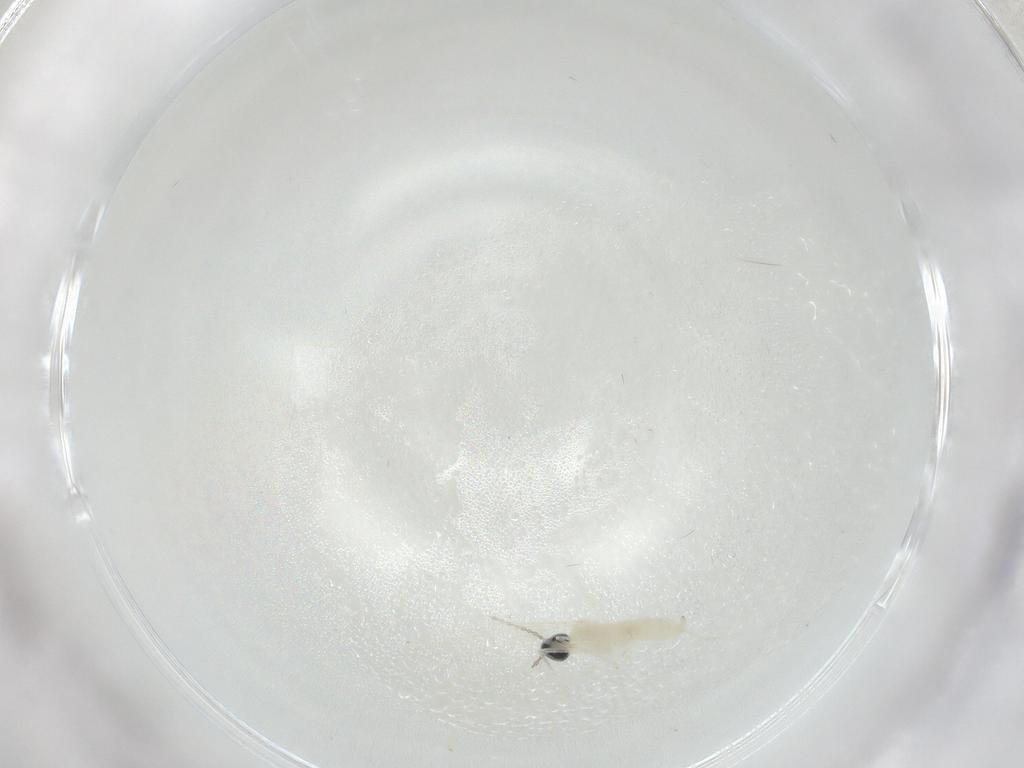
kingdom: Animalia
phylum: Arthropoda
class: Insecta
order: Diptera
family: Cecidomyiidae
